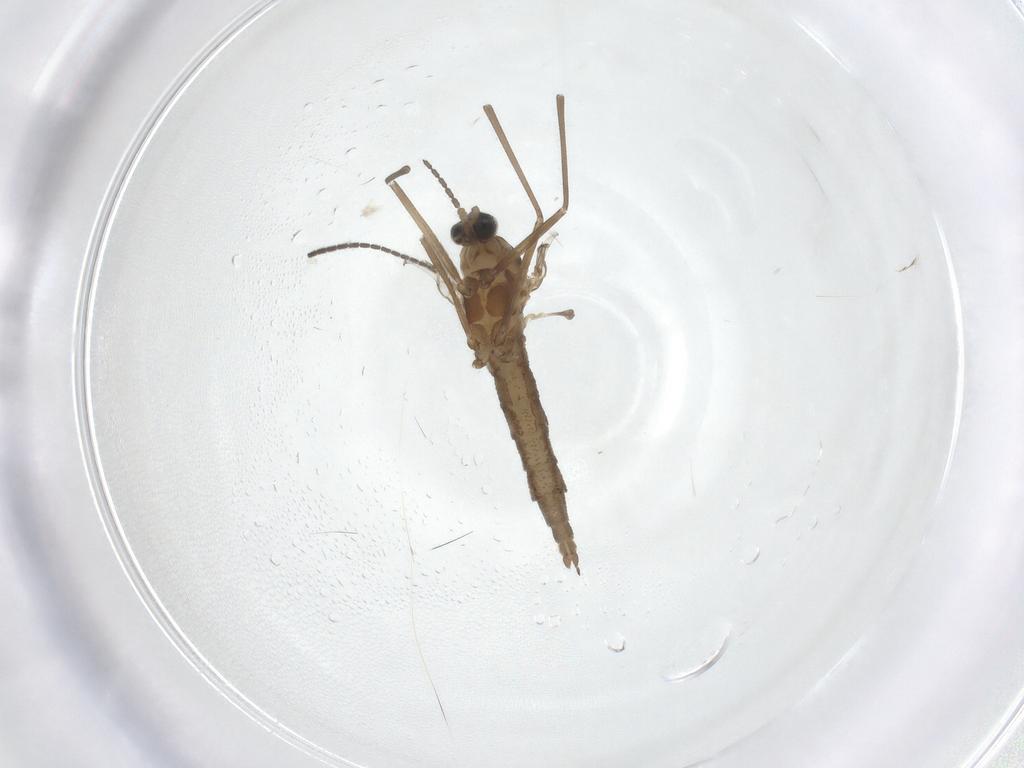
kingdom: Animalia
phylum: Arthropoda
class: Insecta
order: Diptera
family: Cecidomyiidae
